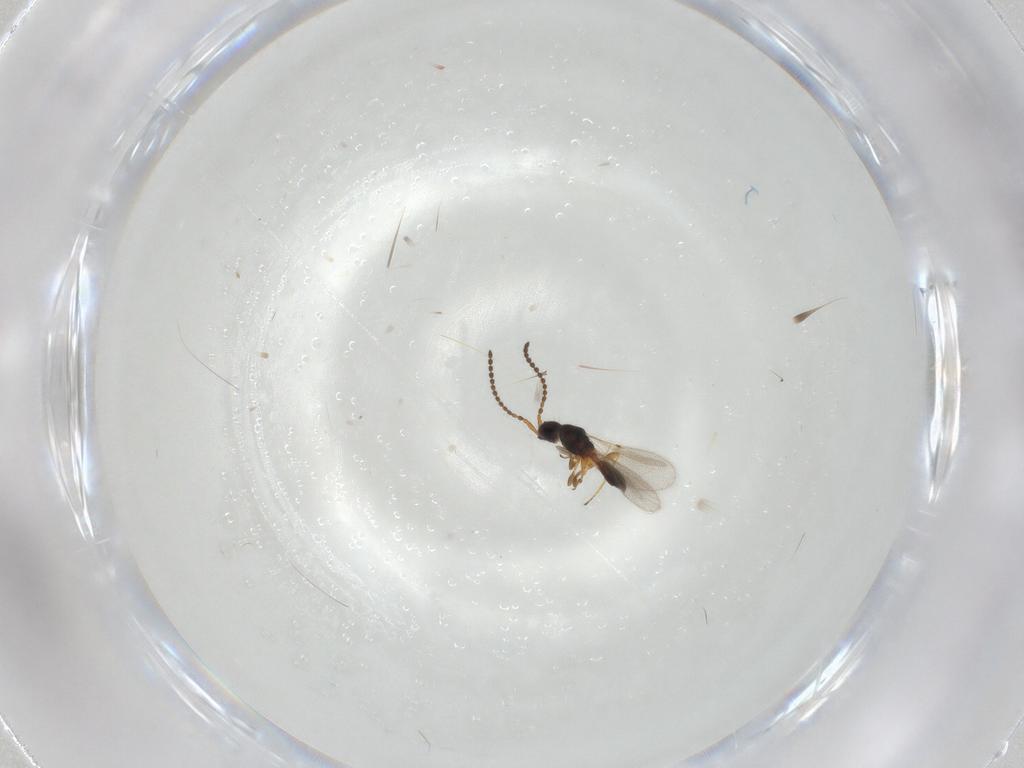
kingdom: Animalia
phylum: Arthropoda
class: Insecta
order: Hymenoptera
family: Diapriidae
